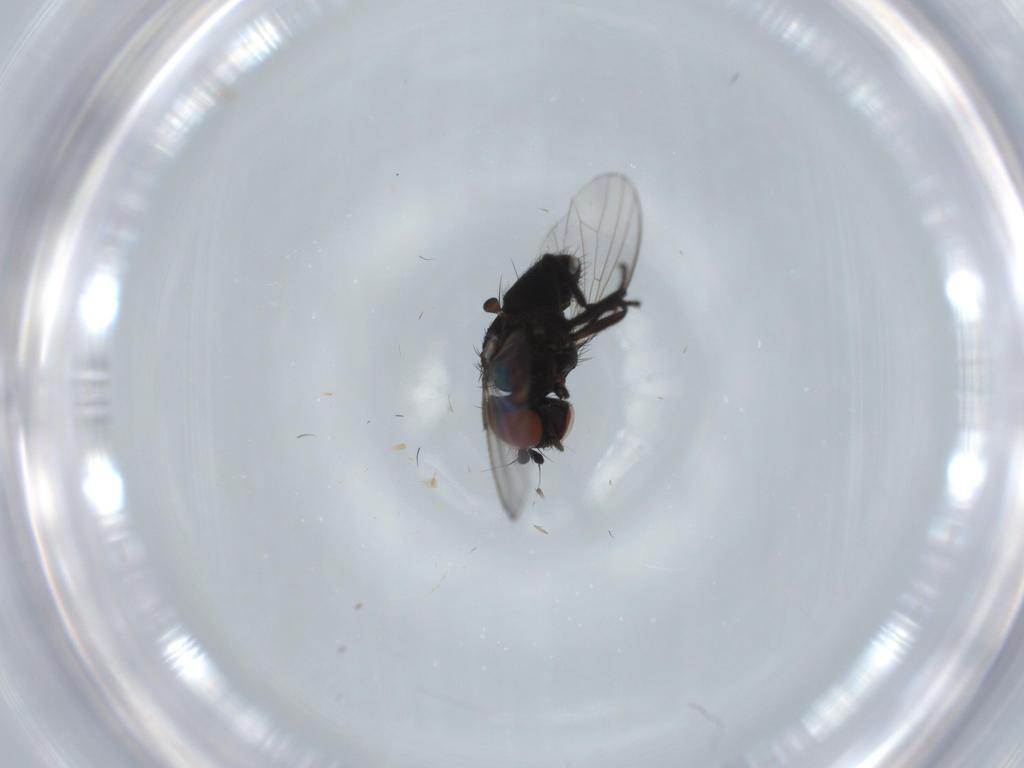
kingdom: Animalia
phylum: Arthropoda
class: Insecta
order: Diptera
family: Milichiidae
